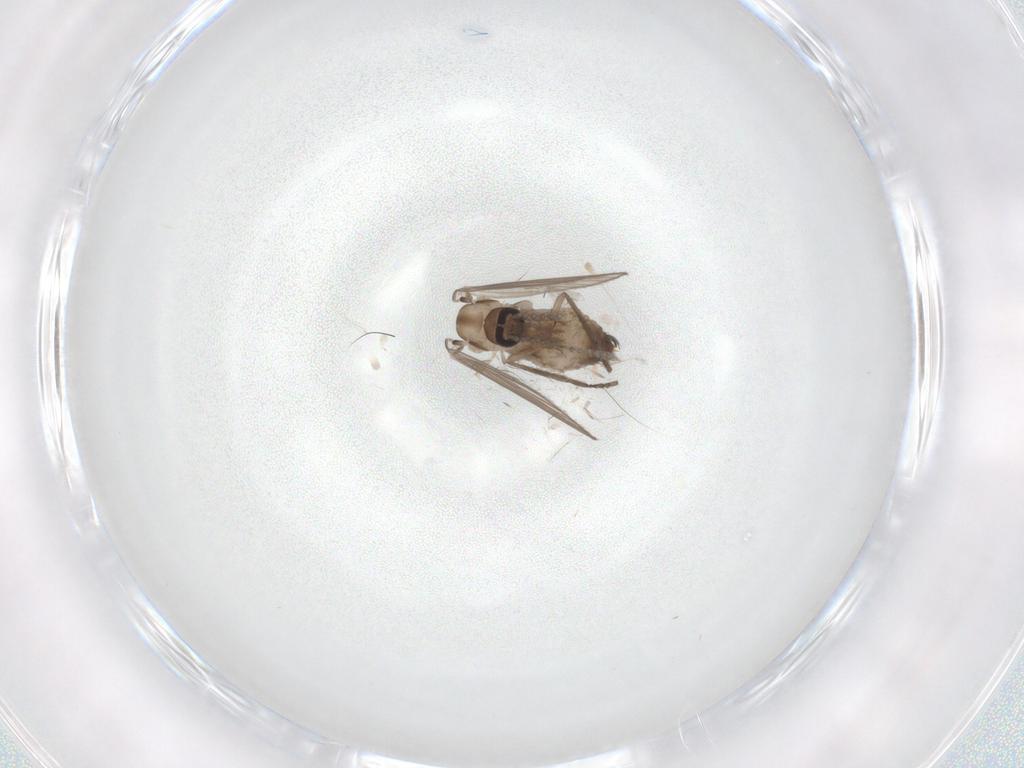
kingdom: Animalia
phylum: Arthropoda
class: Insecta
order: Diptera
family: Psychodidae
